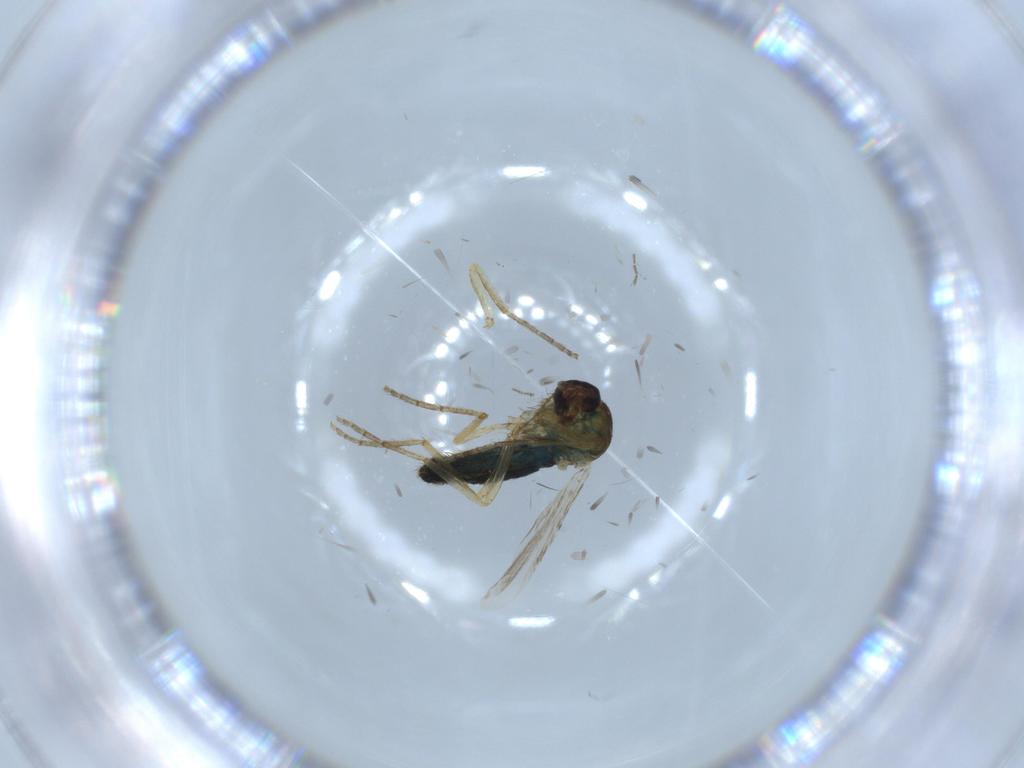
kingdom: Animalia
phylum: Arthropoda
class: Insecta
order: Diptera
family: Ceratopogonidae
